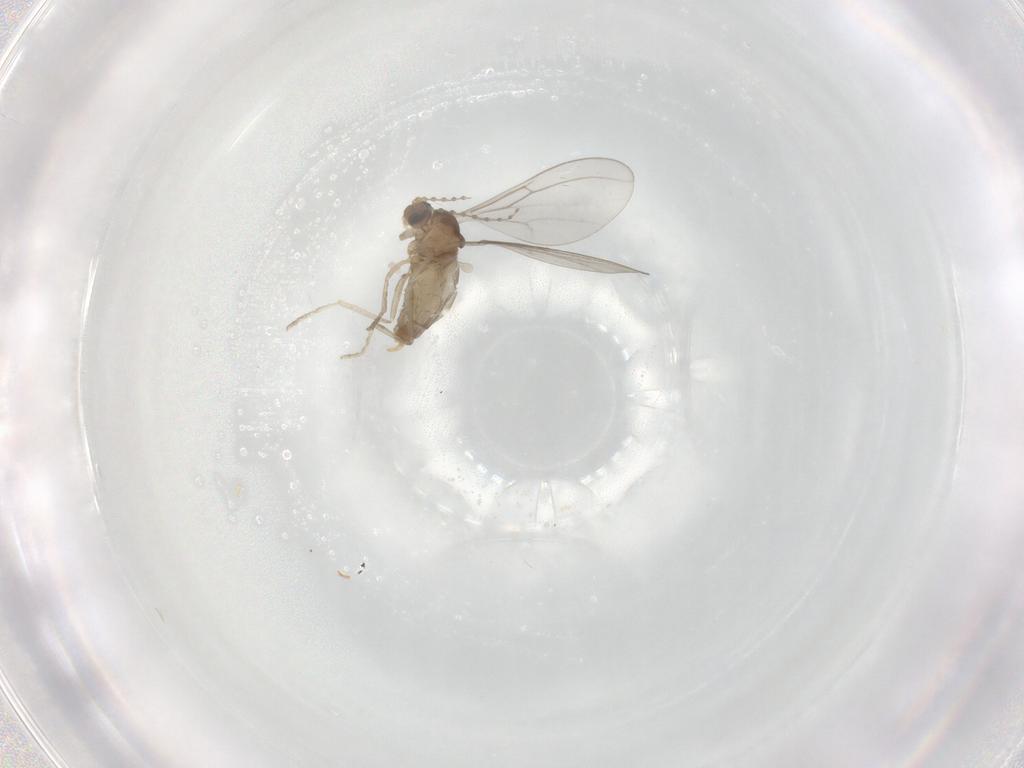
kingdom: Animalia
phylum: Arthropoda
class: Insecta
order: Diptera
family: Cecidomyiidae
